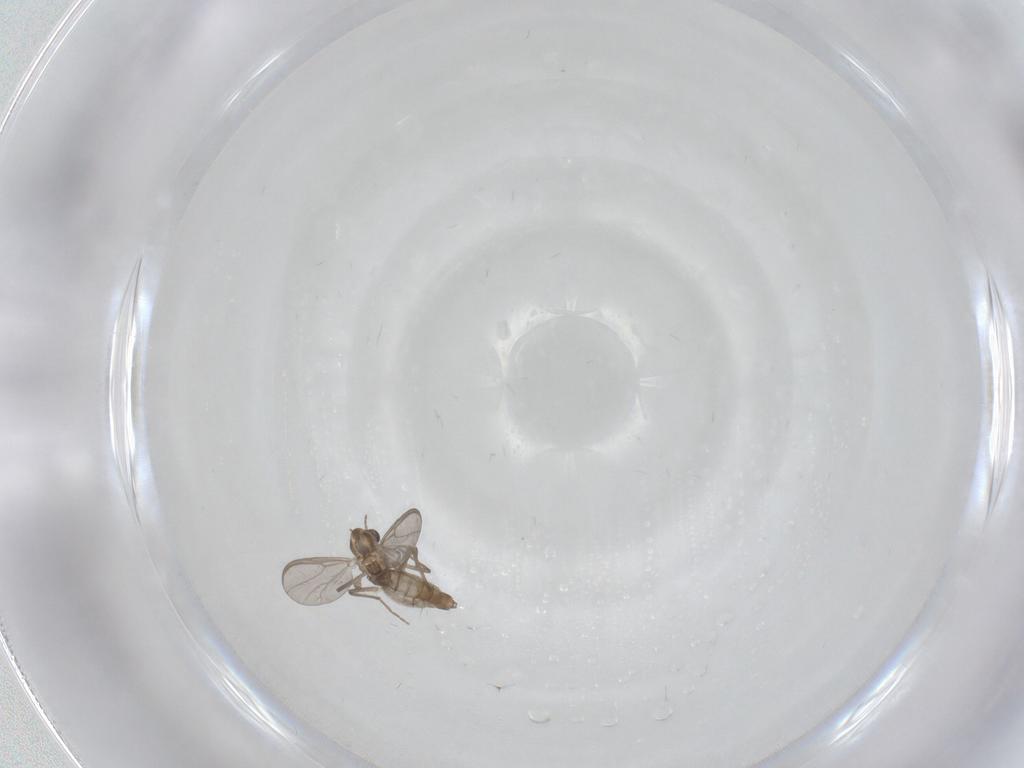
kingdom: Animalia
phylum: Arthropoda
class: Insecta
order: Diptera
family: Chironomidae
